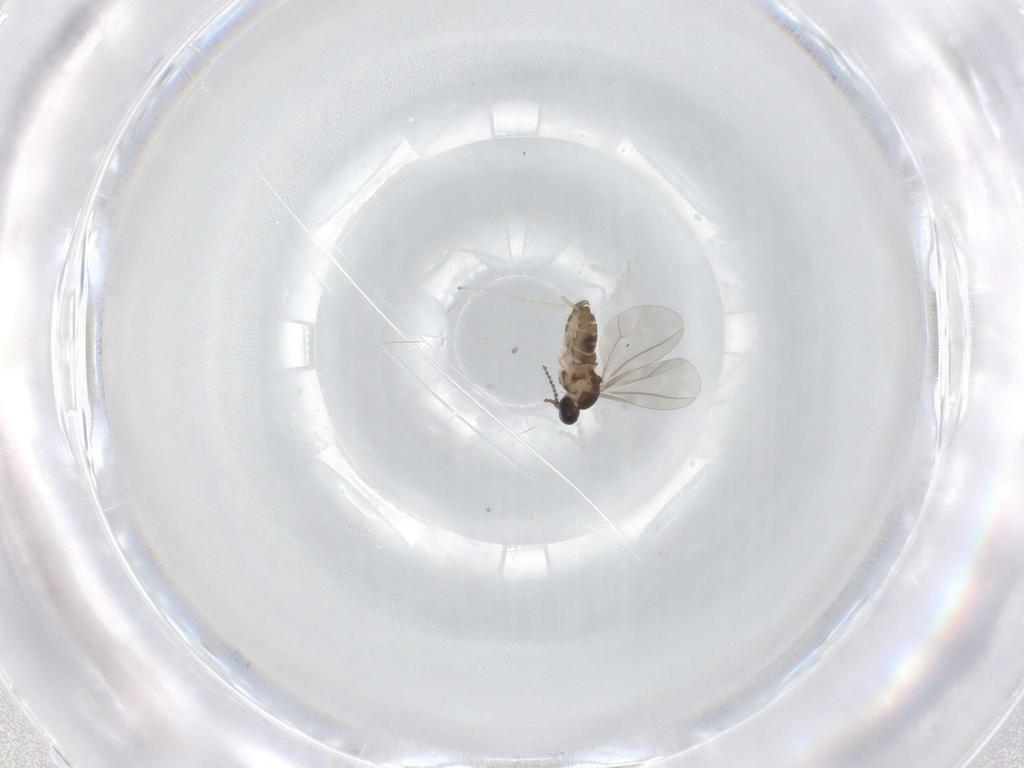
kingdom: Animalia
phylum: Arthropoda
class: Insecta
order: Diptera
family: Cecidomyiidae
